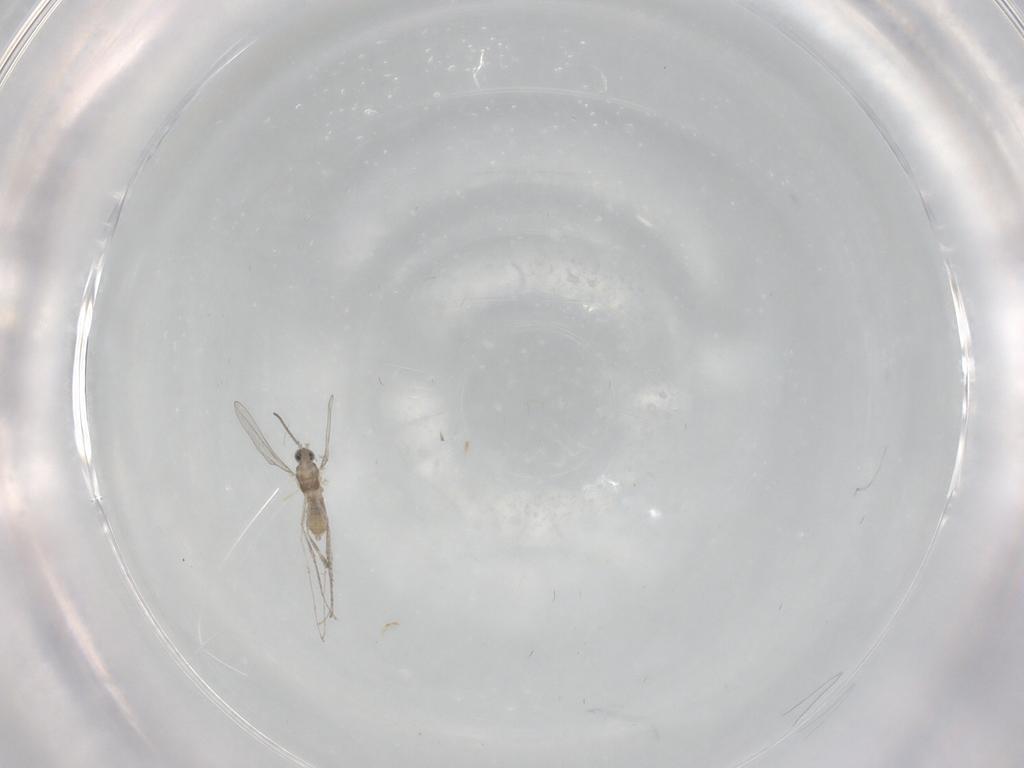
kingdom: Animalia
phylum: Arthropoda
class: Insecta
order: Diptera
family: Cecidomyiidae
